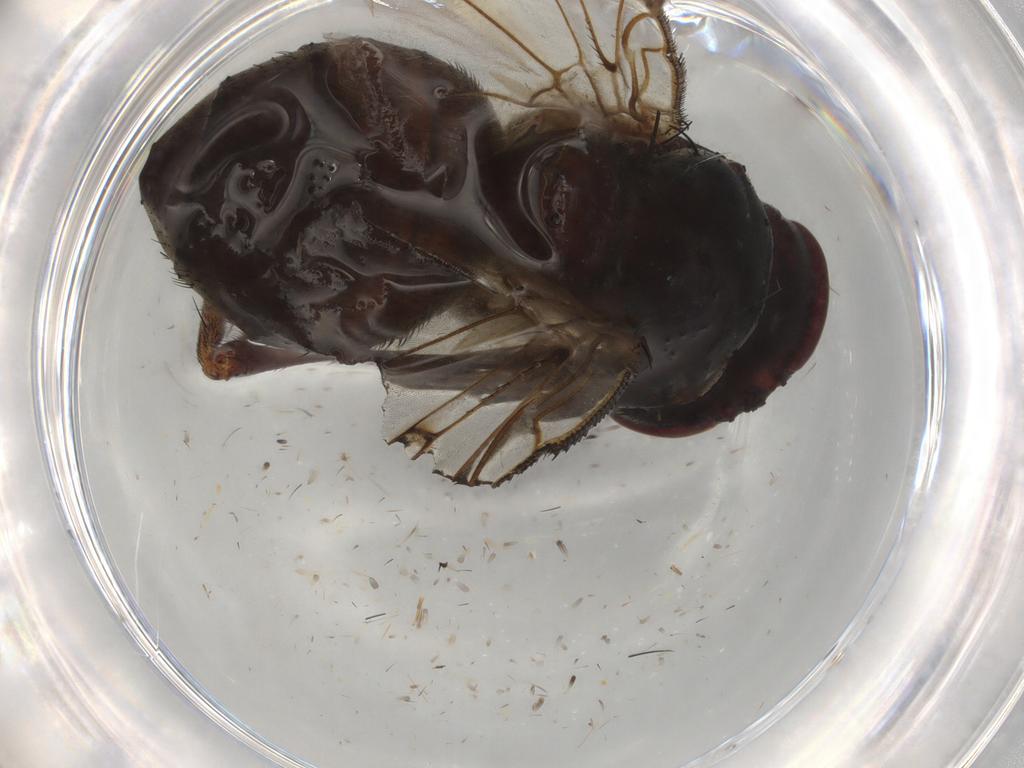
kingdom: Animalia
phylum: Arthropoda
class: Insecta
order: Diptera
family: Tachinidae
